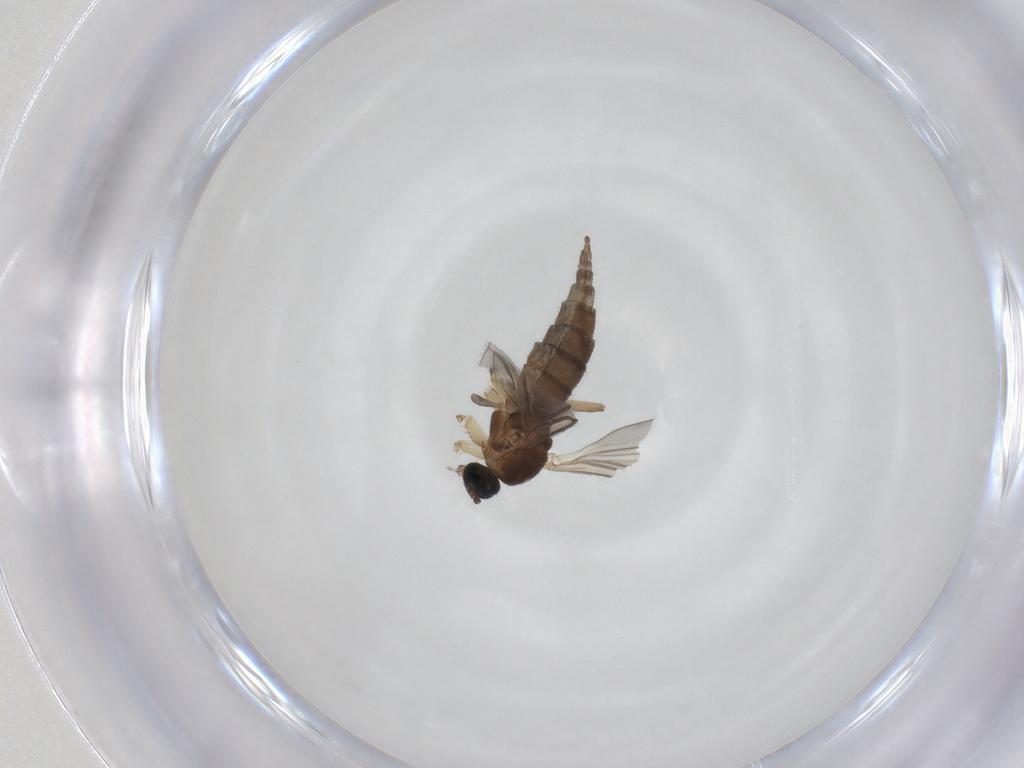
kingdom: Animalia
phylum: Arthropoda
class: Insecta
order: Diptera
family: Sciaridae
